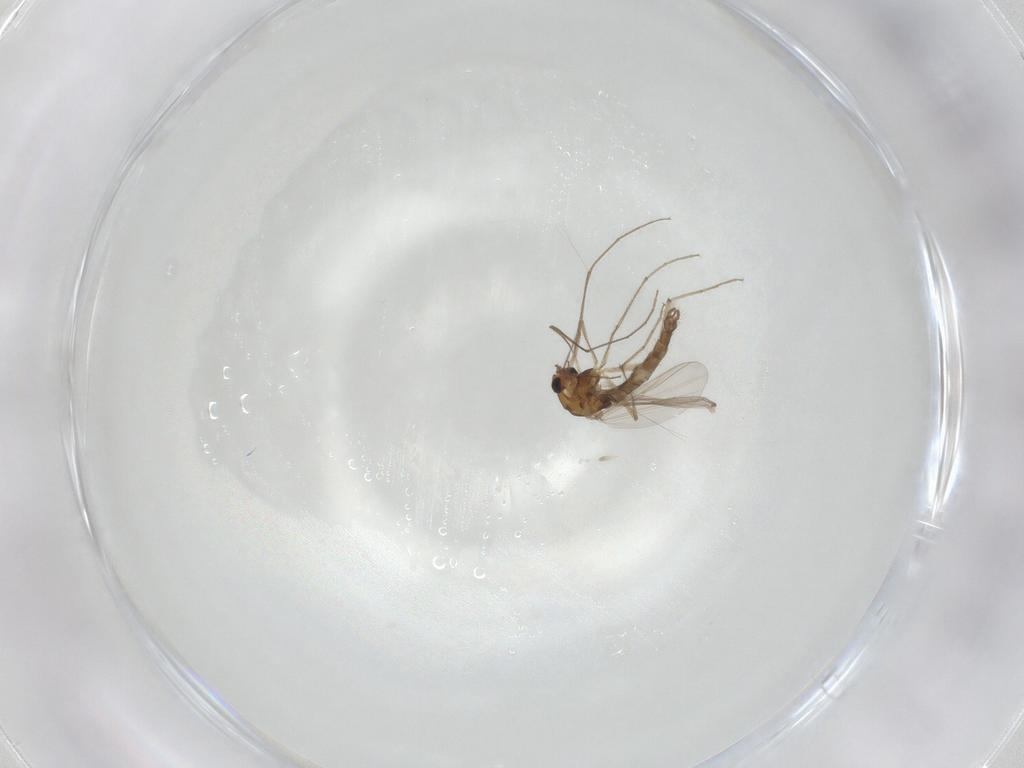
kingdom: Animalia
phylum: Arthropoda
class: Insecta
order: Diptera
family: Chironomidae
